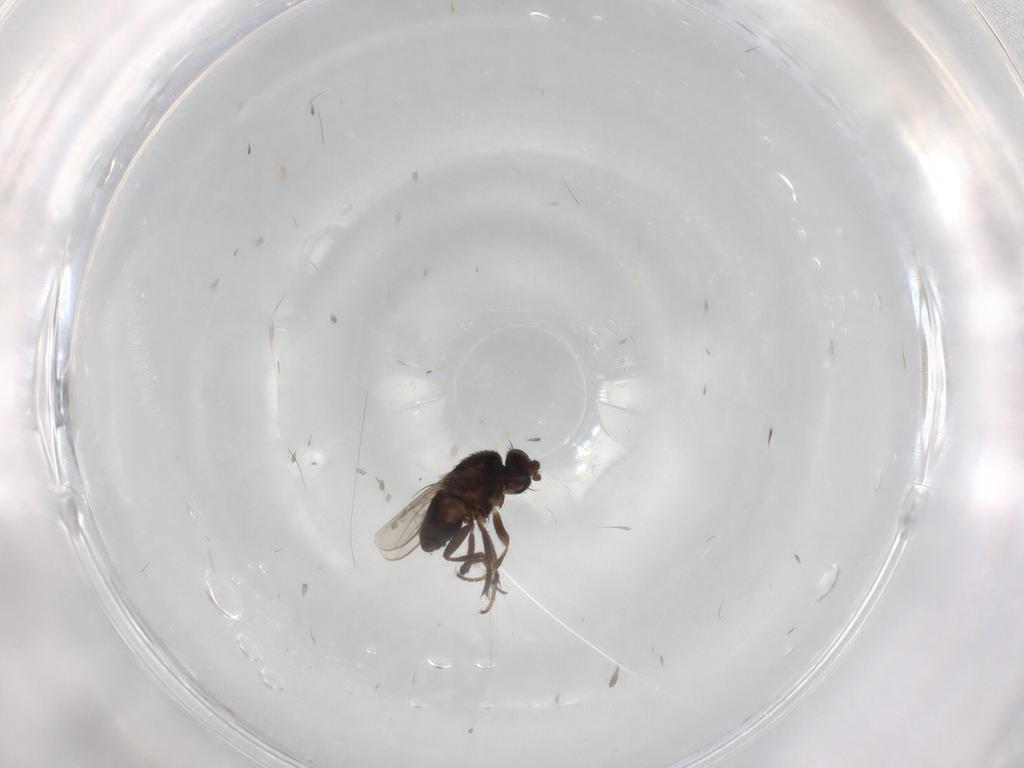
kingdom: Animalia
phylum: Arthropoda
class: Insecta
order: Diptera
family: Sphaeroceridae
